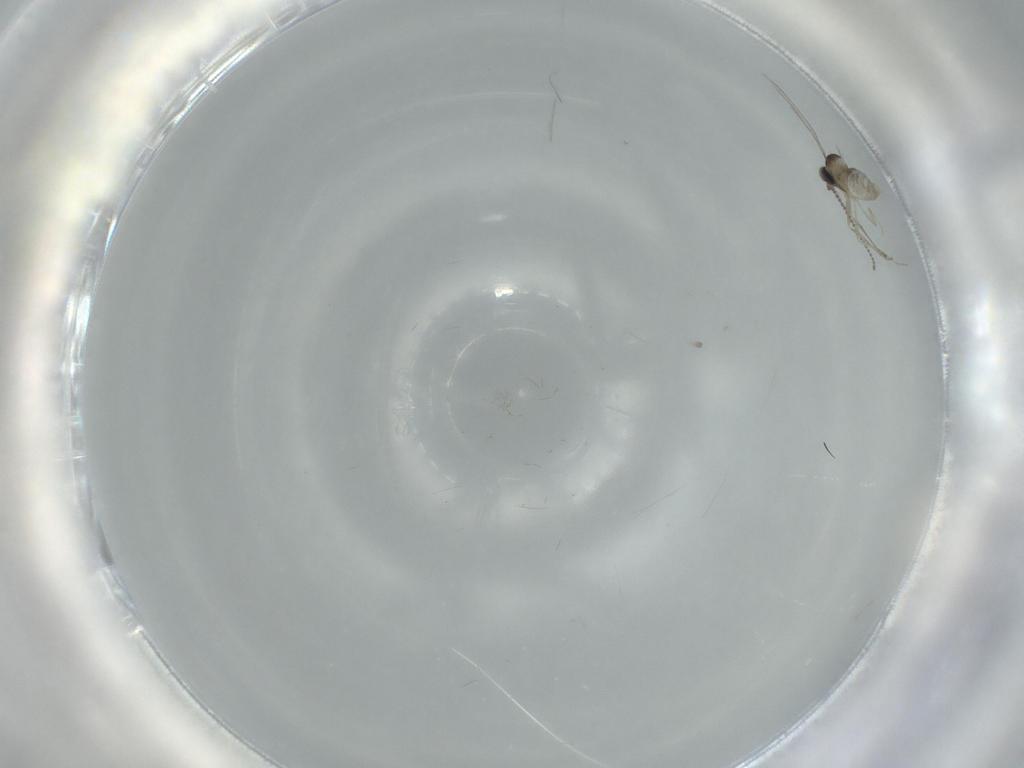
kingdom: Animalia
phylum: Arthropoda
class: Insecta
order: Diptera
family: Cecidomyiidae
